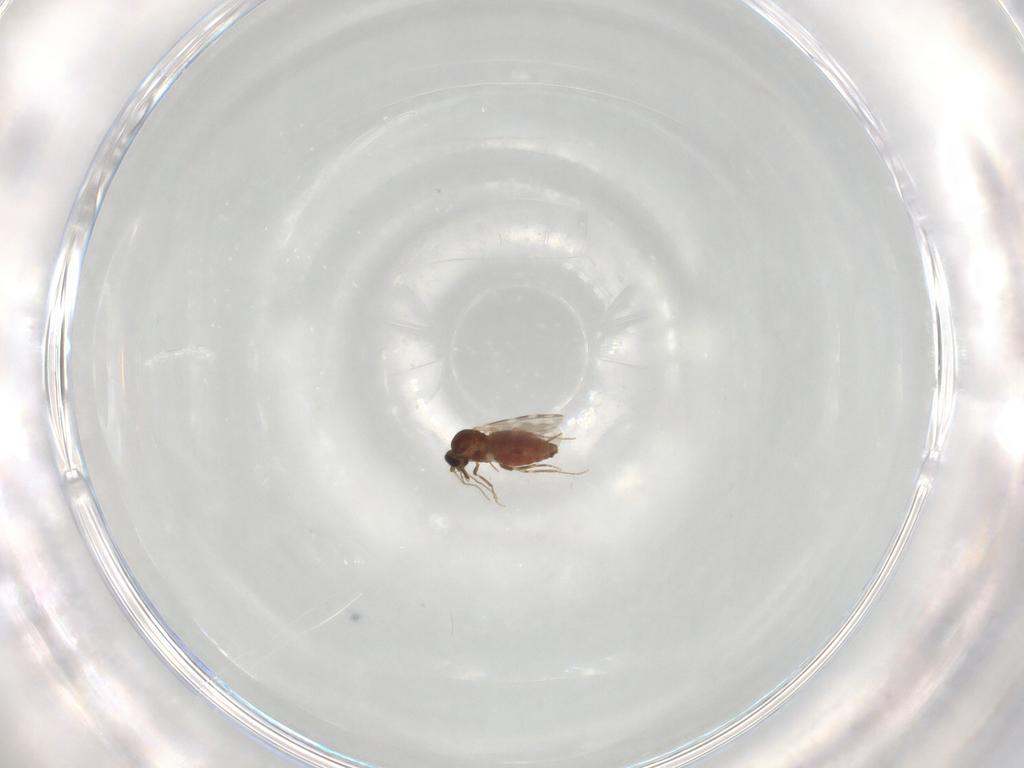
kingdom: Animalia
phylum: Arthropoda
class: Insecta
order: Diptera
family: Ceratopogonidae
